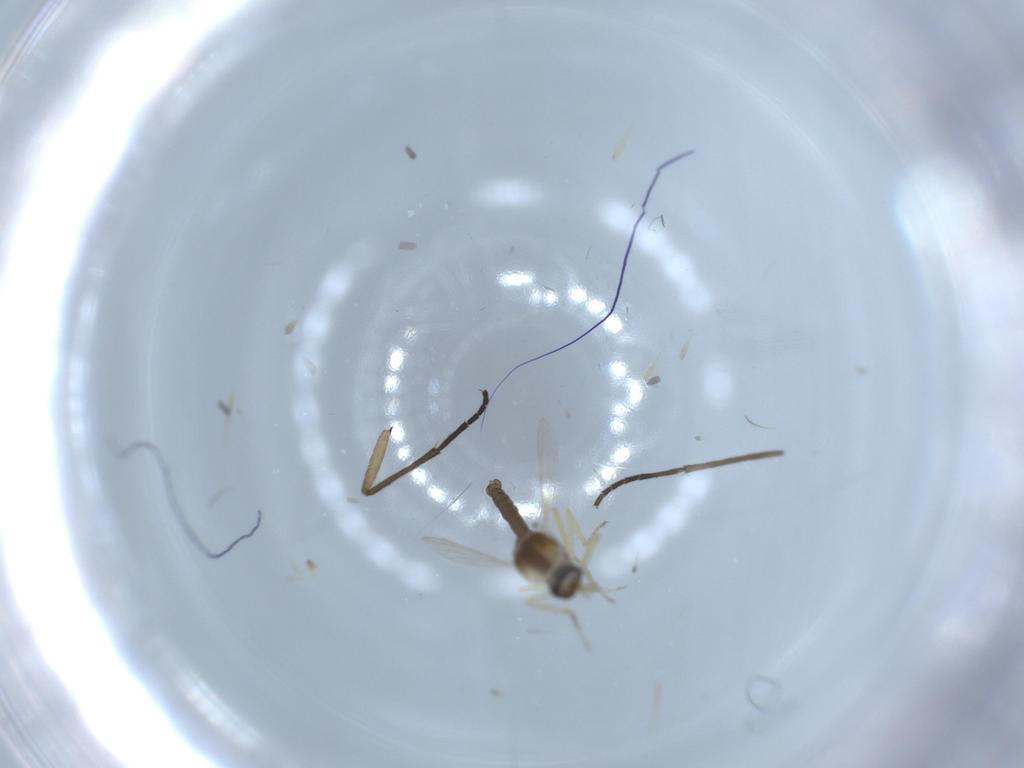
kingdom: Animalia
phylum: Arthropoda
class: Insecta
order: Diptera
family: Ceratopogonidae
